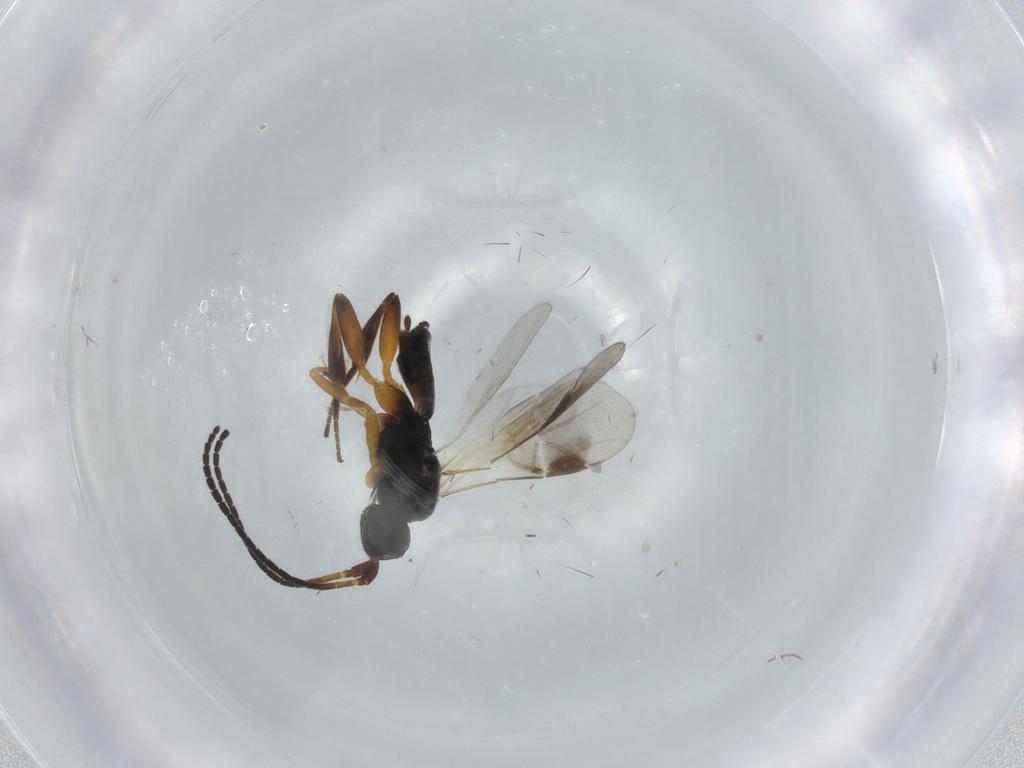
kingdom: Animalia
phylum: Arthropoda
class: Insecta
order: Hymenoptera
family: Braconidae
